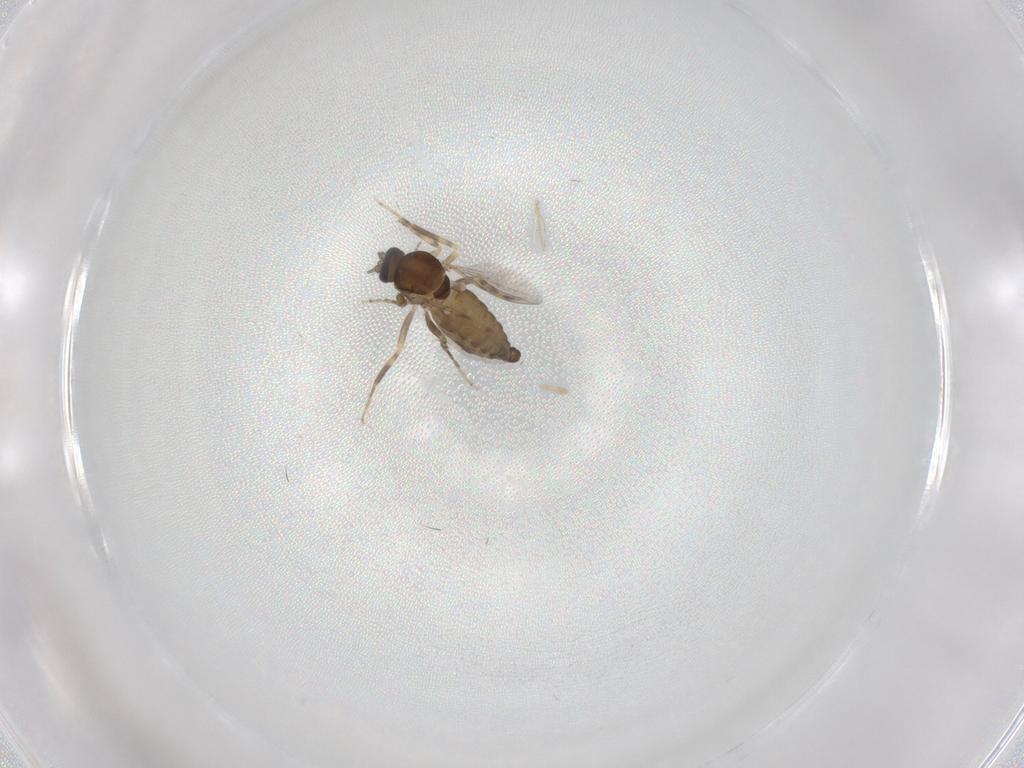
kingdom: Animalia
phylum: Arthropoda
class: Insecta
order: Diptera
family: Ceratopogonidae
